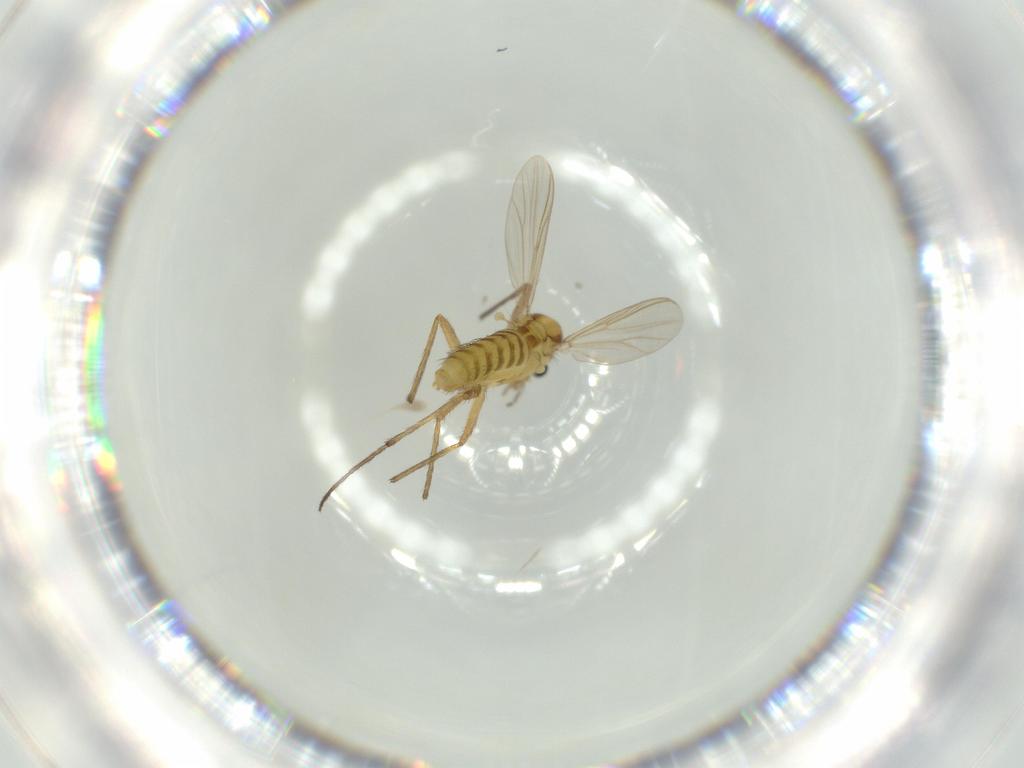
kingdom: Animalia
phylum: Arthropoda
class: Insecta
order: Diptera
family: Chironomidae
